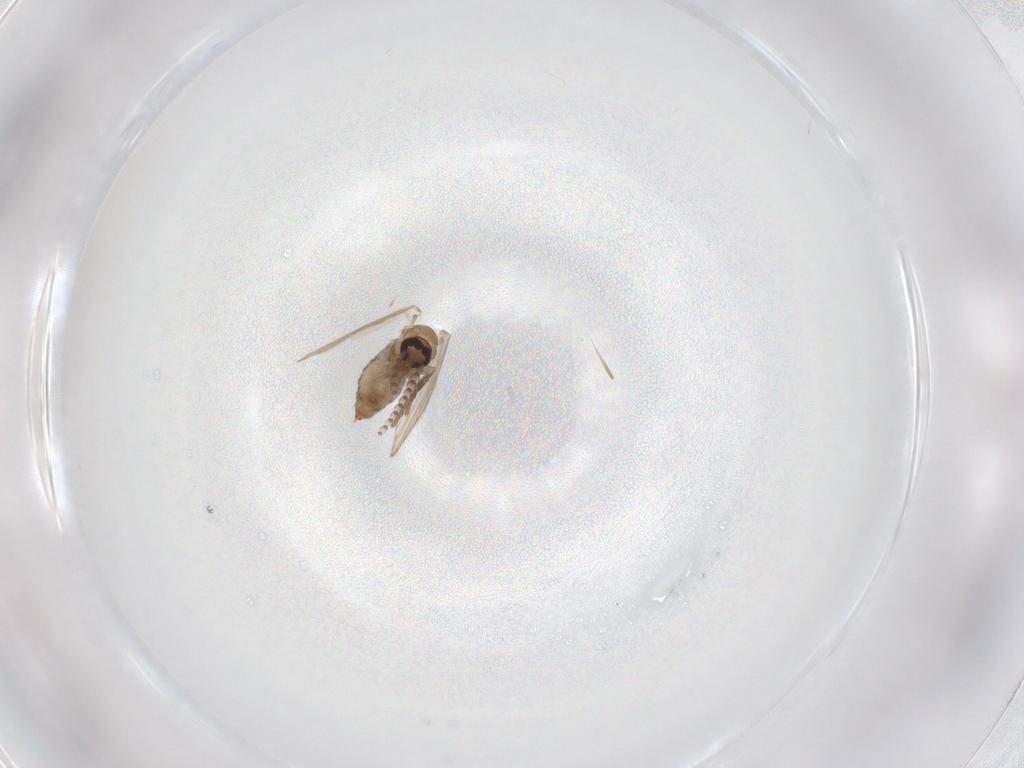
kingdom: Animalia
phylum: Arthropoda
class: Insecta
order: Diptera
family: Psychodidae
